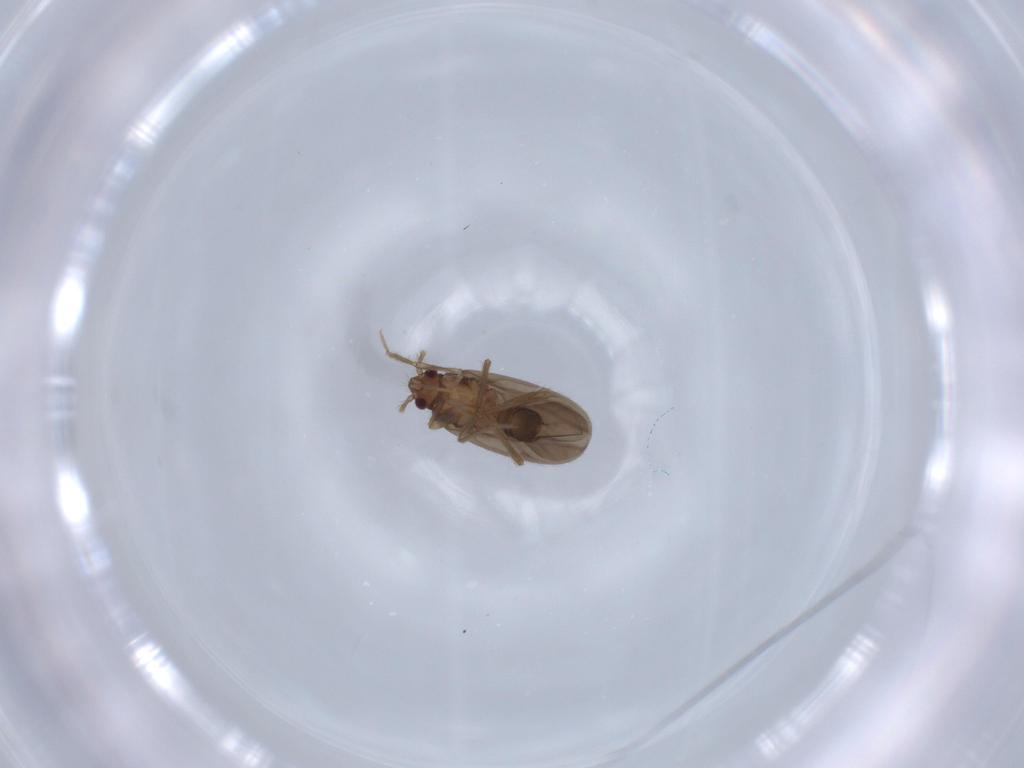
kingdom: Animalia
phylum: Arthropoda
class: Insecta
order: Hemiptera
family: Ceratocombidae
